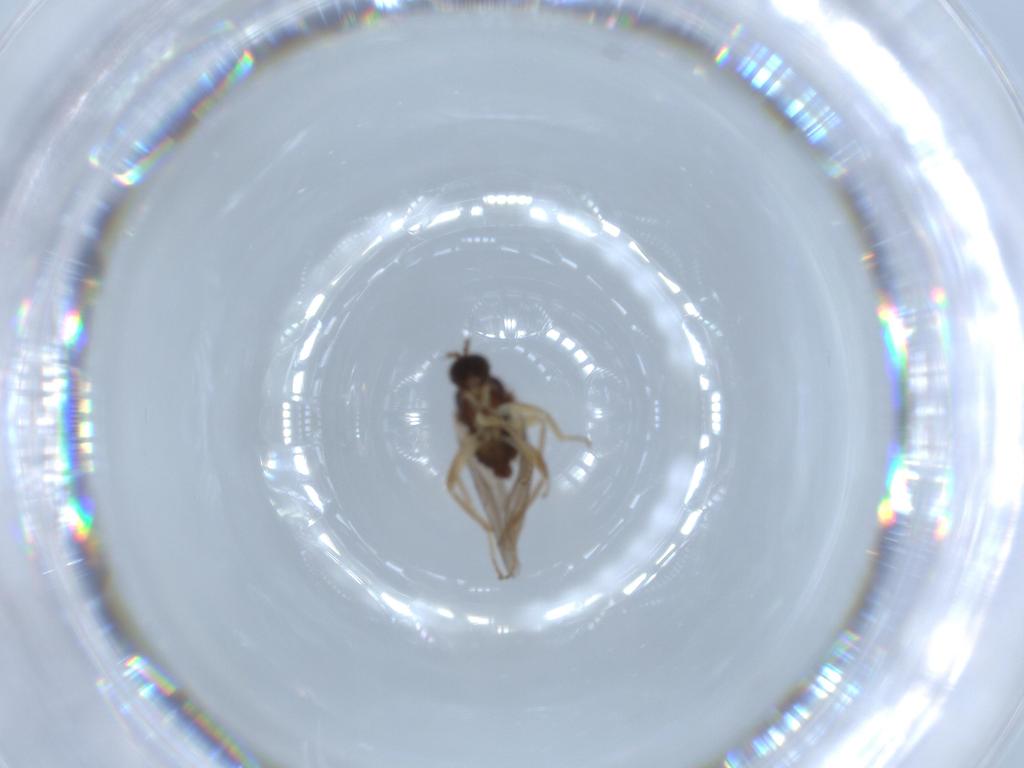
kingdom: Animalia
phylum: Arthropoda
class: Insecta
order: Diptera
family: Hybotidae
